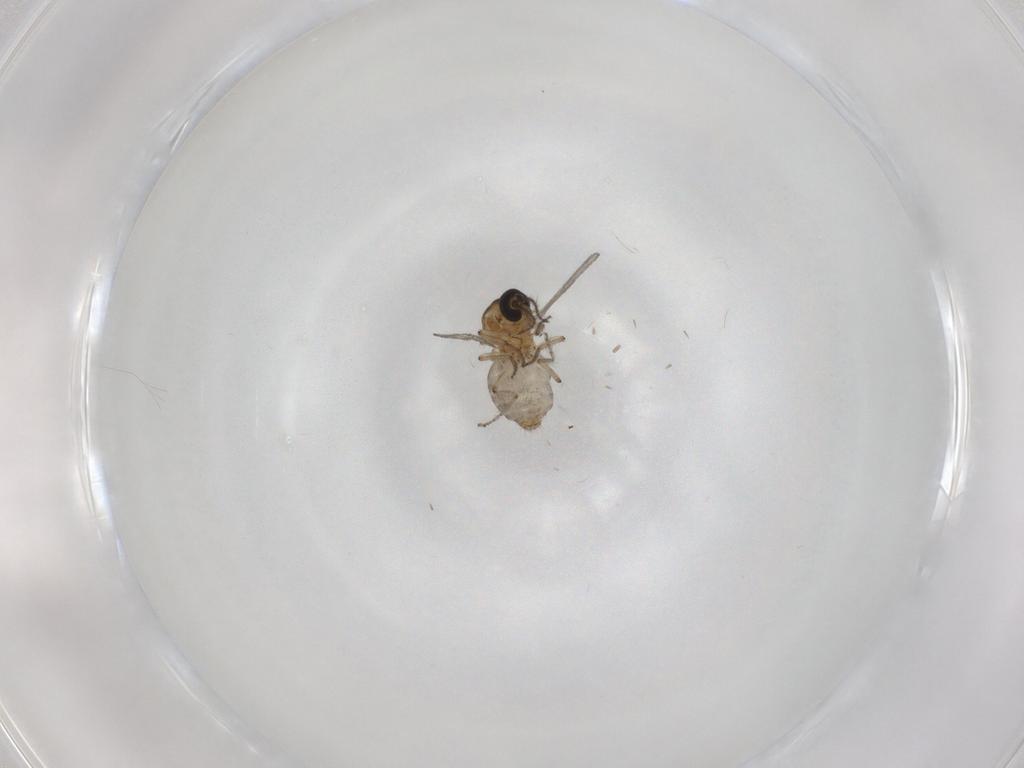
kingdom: Animalia
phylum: Arthropoda
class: Insecta
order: Diptera
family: Ceratopogonidae
